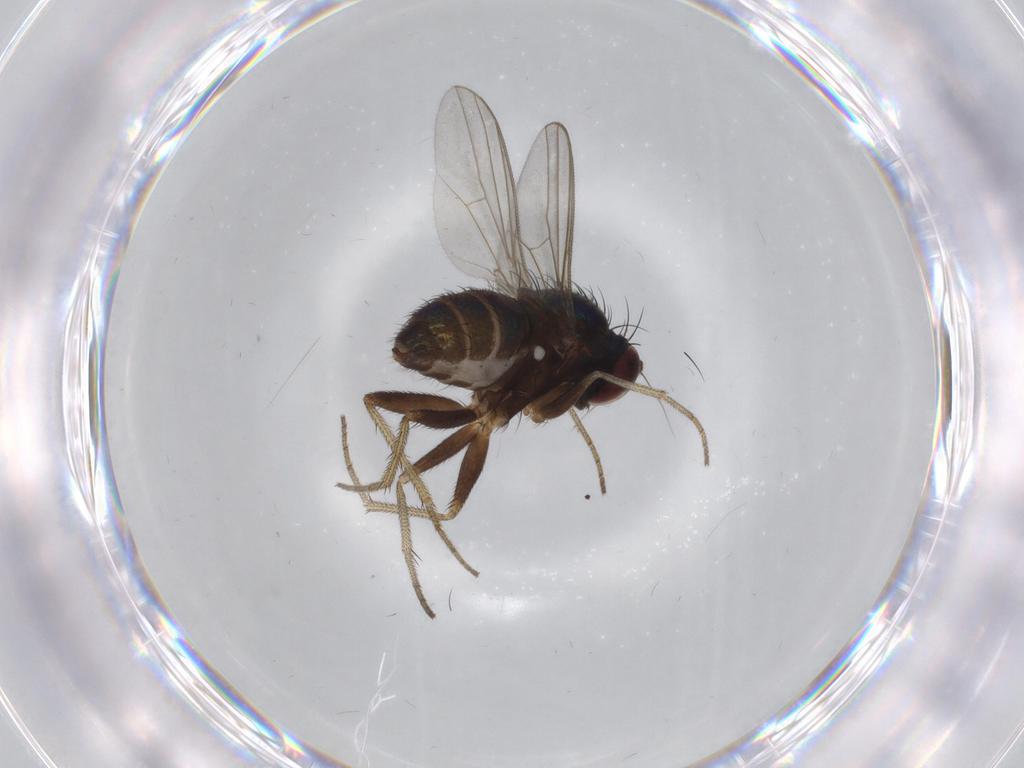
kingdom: Animalia
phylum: Arthropoda
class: Insecta
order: Diptera
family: Dolichopodidae
